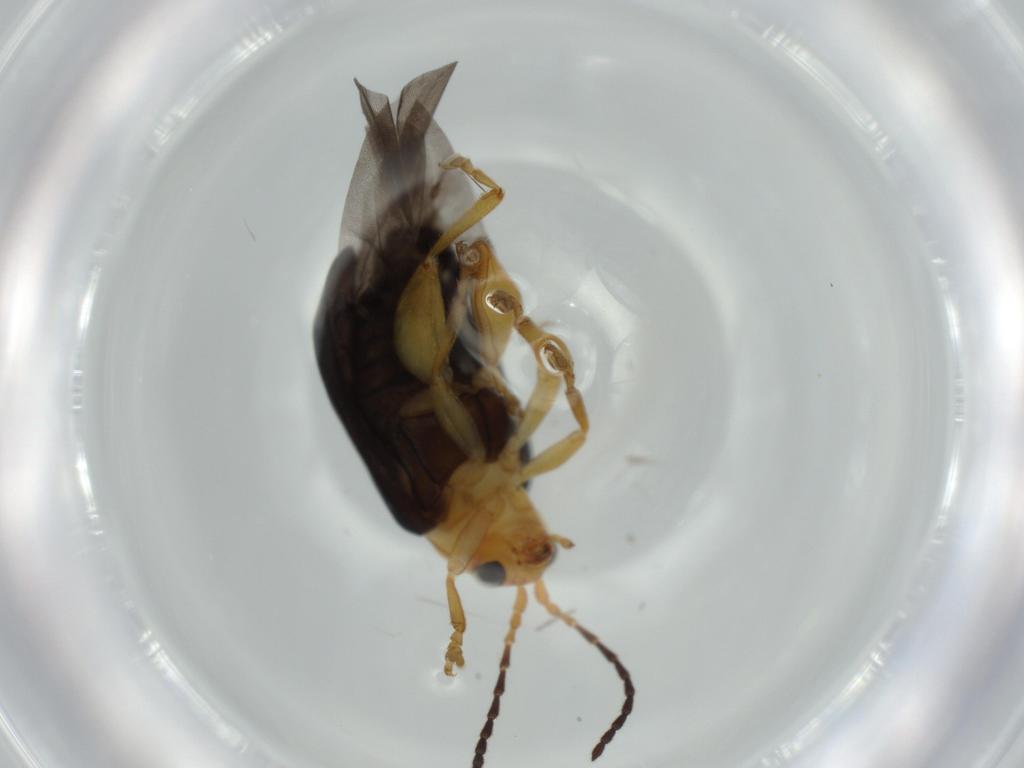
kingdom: Animalia
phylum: Arthropoda
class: Insecta
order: Coleoptera
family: Chrysomelidae
